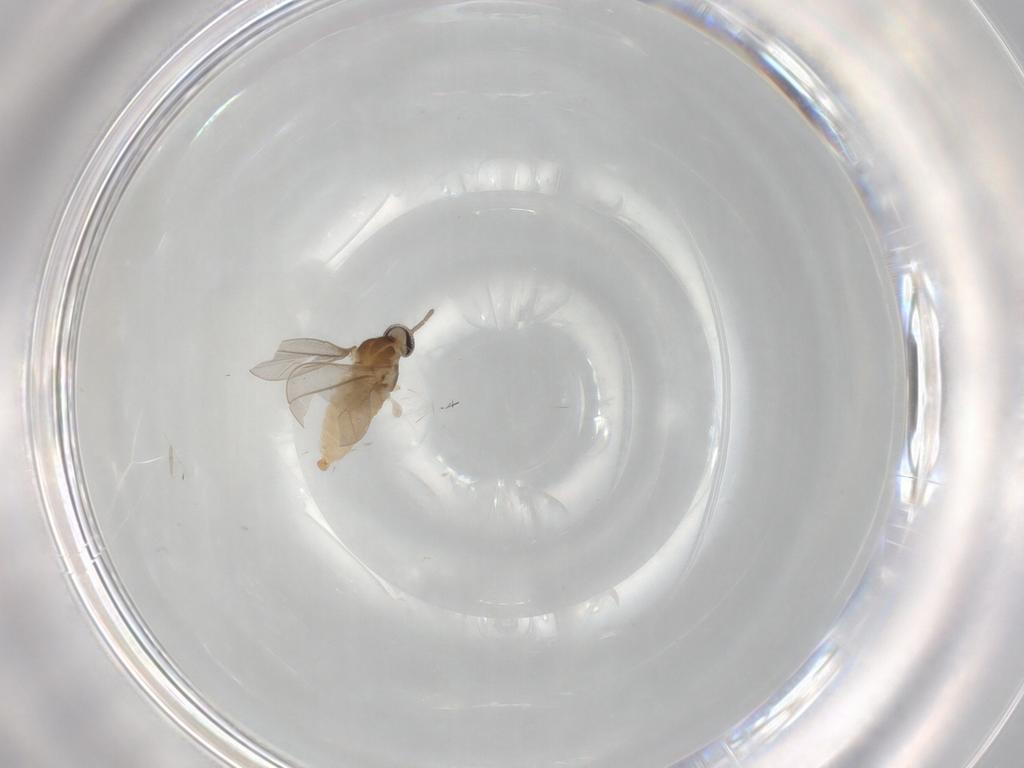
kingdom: Animalia
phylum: Arthropoda
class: Insecta
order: Diptera
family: Cecidomyiidae
